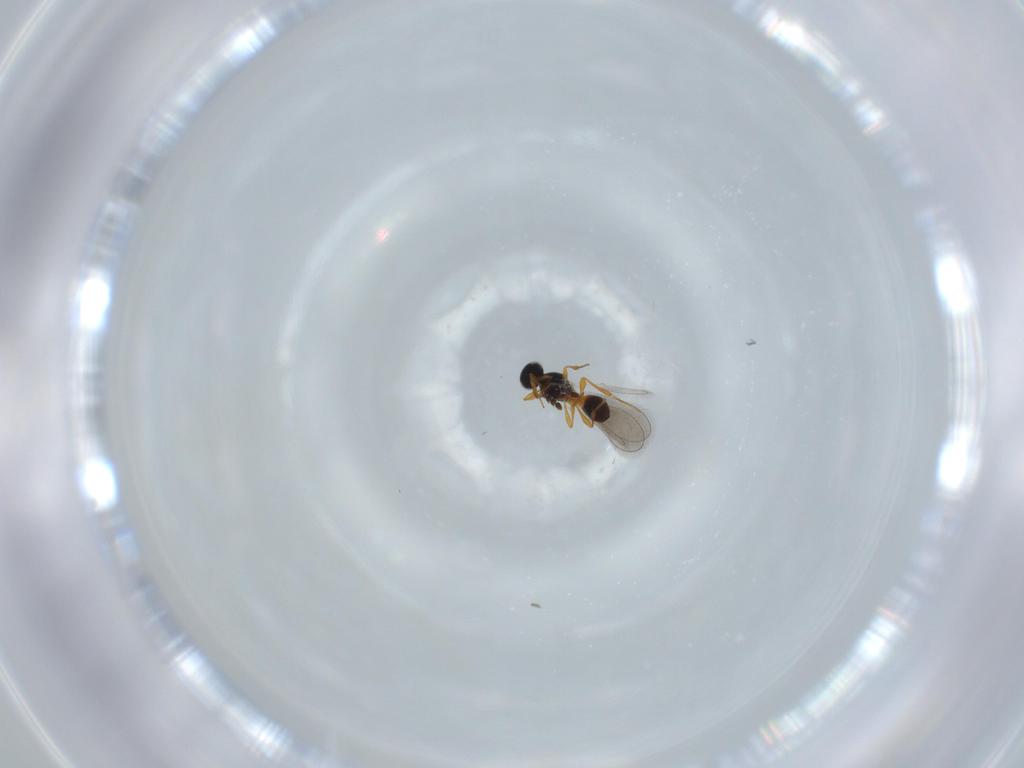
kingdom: Animalia
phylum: Arthropoda
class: Insecta
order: Hymenoptera
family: Platygastridae
